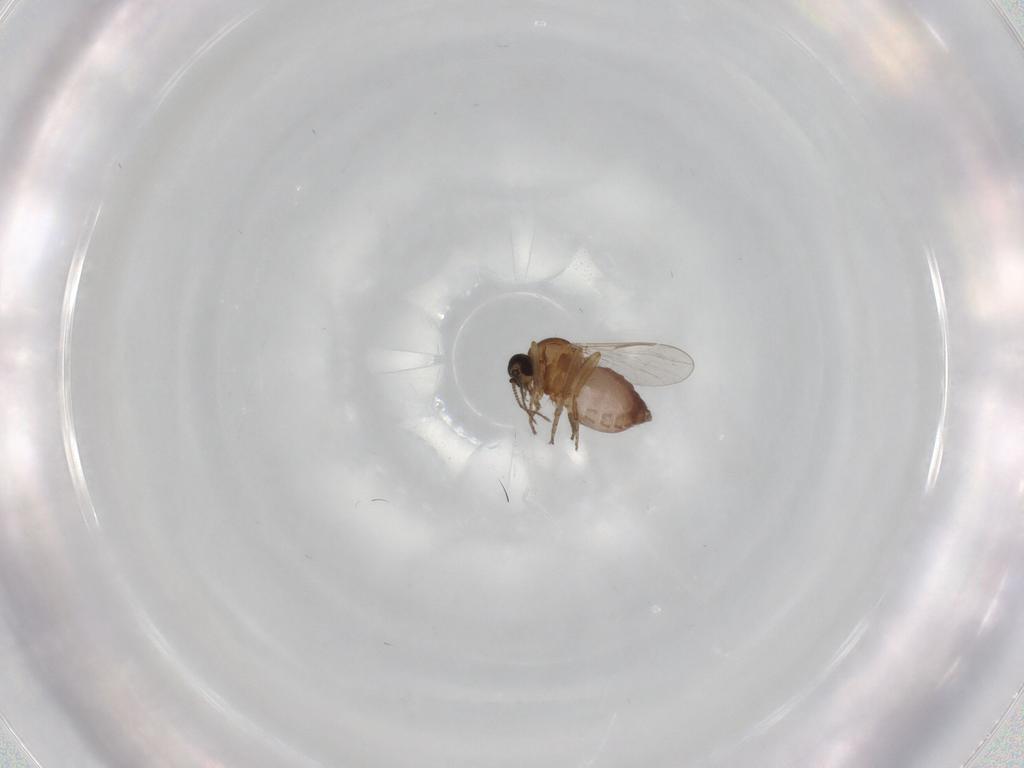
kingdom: Animalia
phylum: Arthropoda
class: Insecta
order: Diptera
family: Ceratopogonidae
